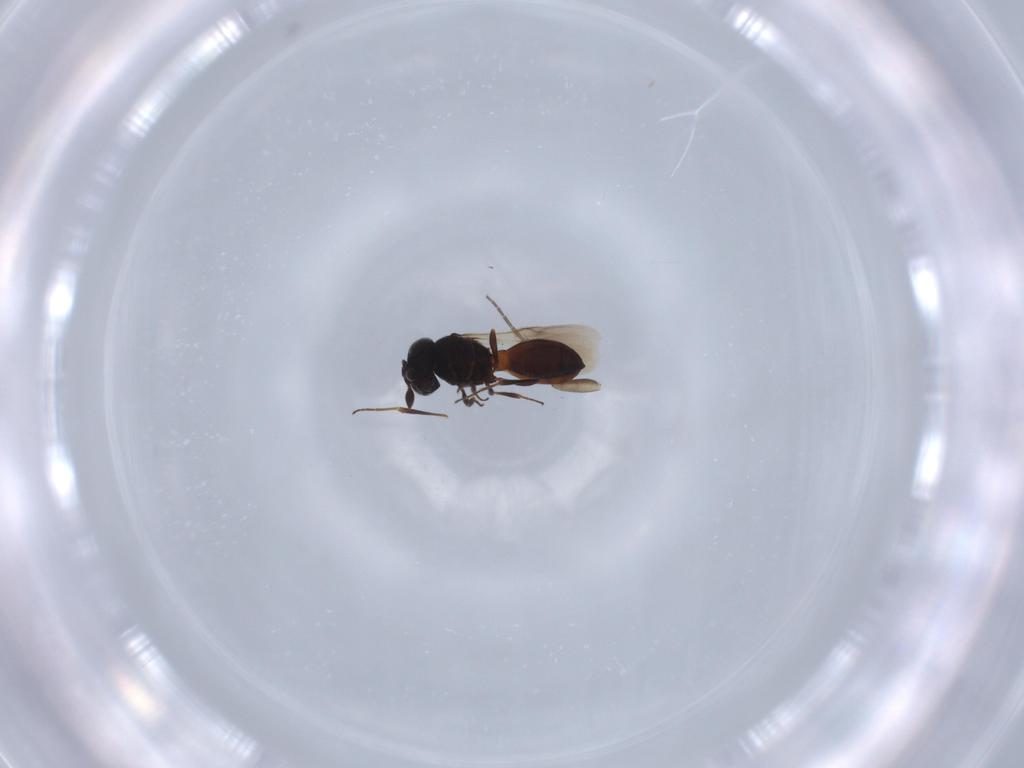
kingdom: Animalia
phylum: Arthropoda
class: Insecta
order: Hymenoptera
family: Scelionidae
